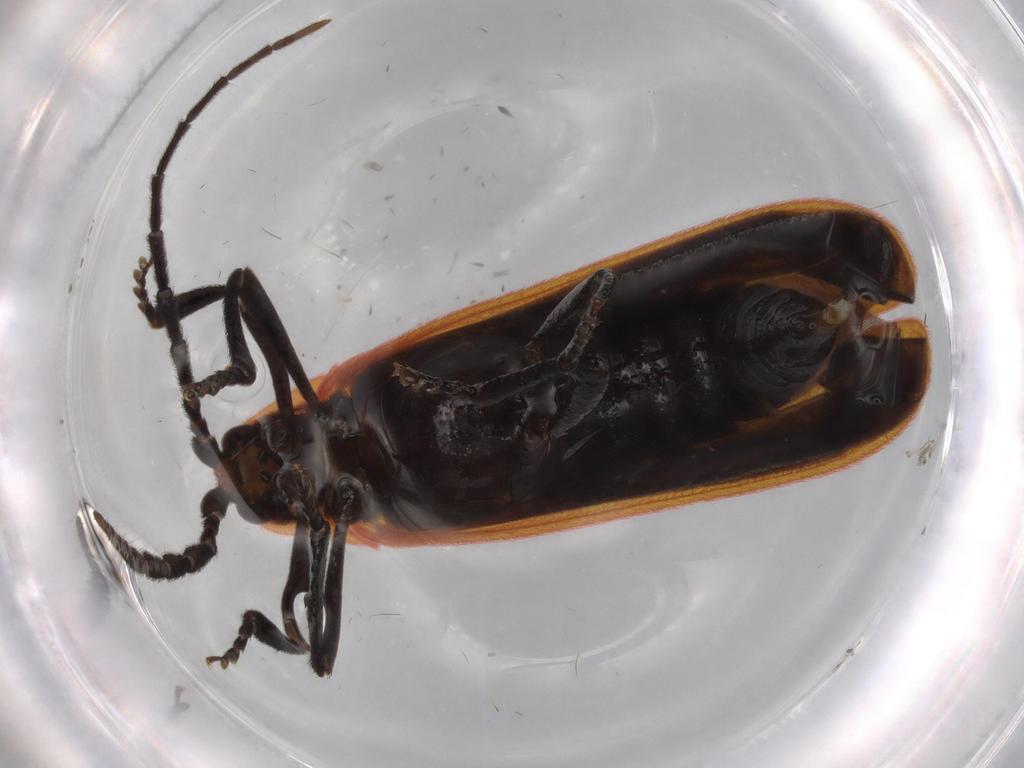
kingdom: Animalia
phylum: Arthropoda
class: Insecta
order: Coleoptera
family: Lycidae
